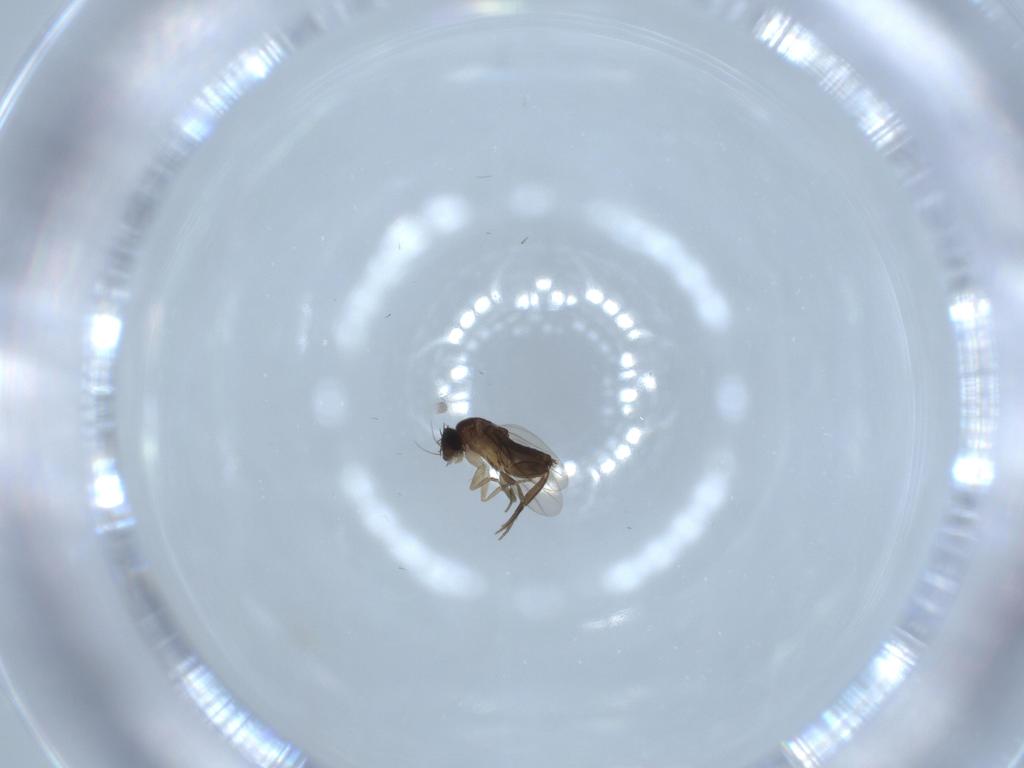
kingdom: Animalia
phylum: Arthropoda
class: Insecta
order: Diptera
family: Phoridae
